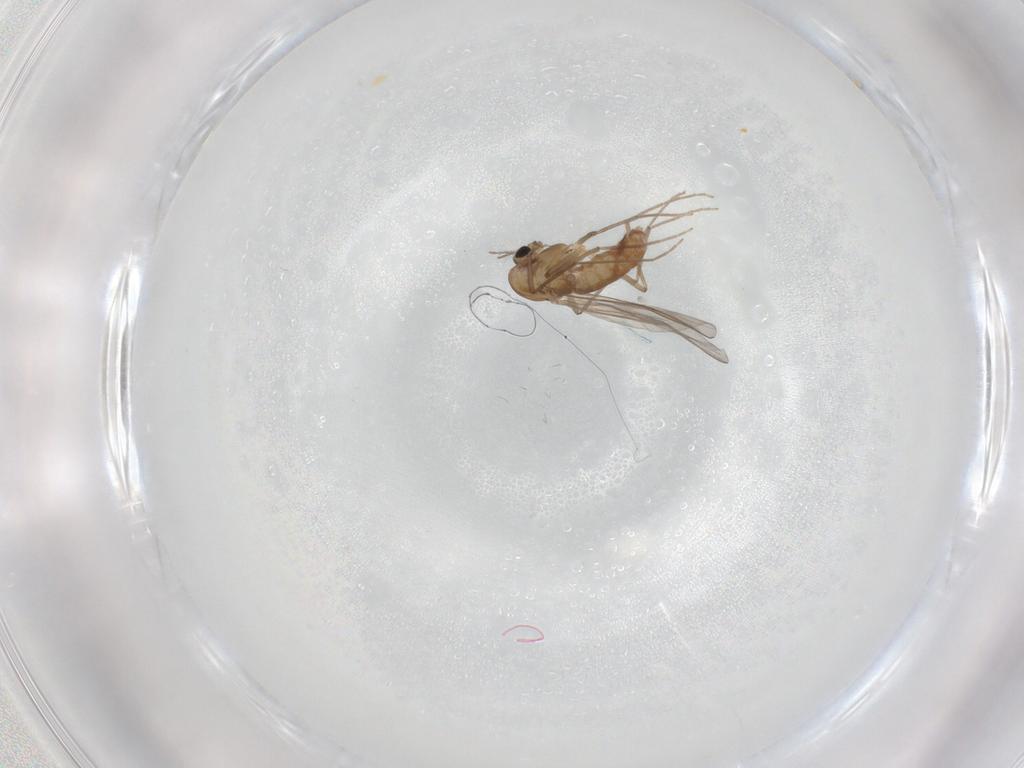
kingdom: Animalia
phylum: Arthropoda
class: Insecta
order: Diptera
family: Chironomidae
